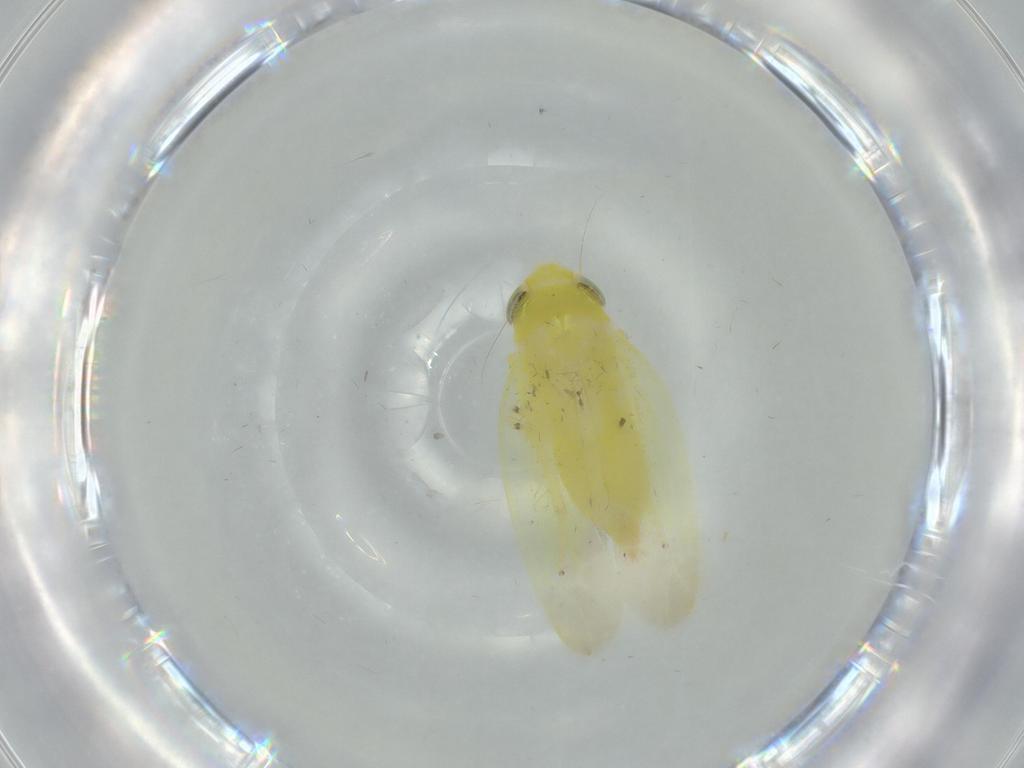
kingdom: Animalia
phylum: Arthropoda
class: Insecta
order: Hemiptera
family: Cicadellidae
